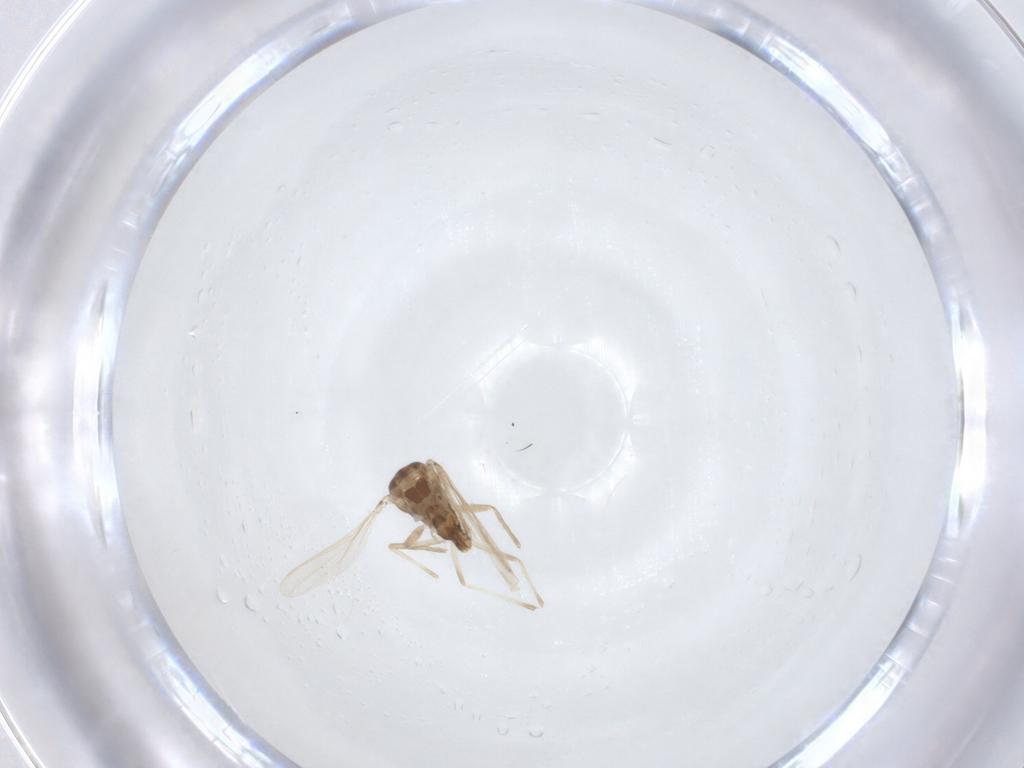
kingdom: Animalia
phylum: Arthropoda
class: Insecta
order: Diptera
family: Chironomidae
